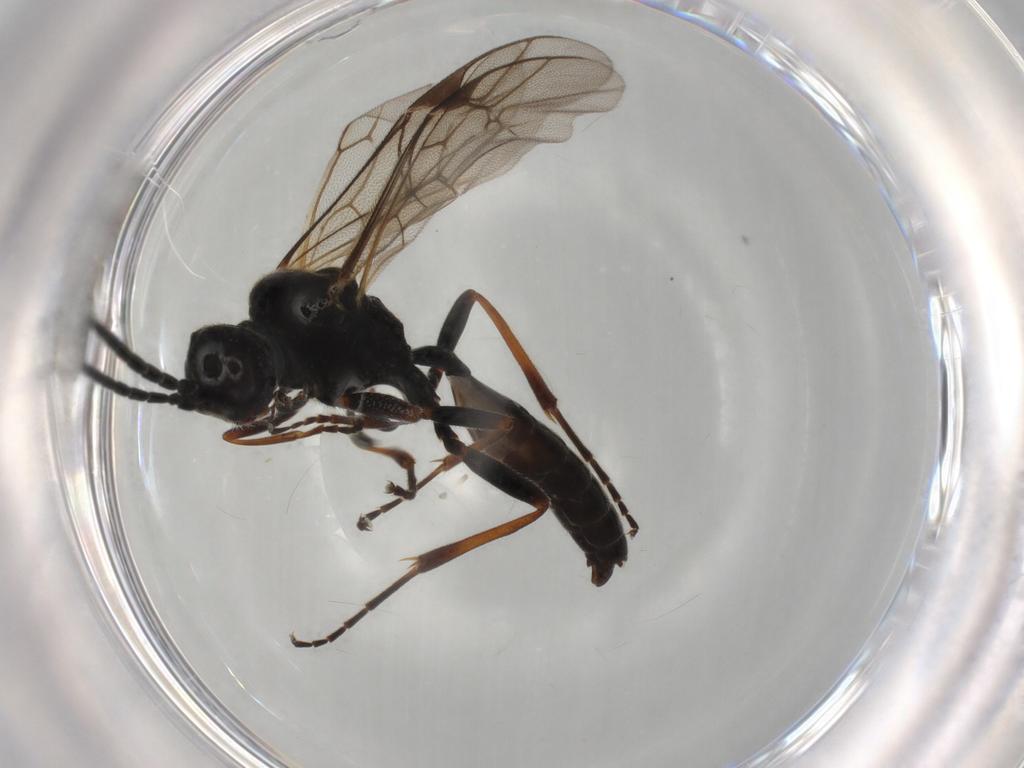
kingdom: Animalia
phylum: Arthropoda
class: Insecta
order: Hymenoptera
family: Ichneumonidae
